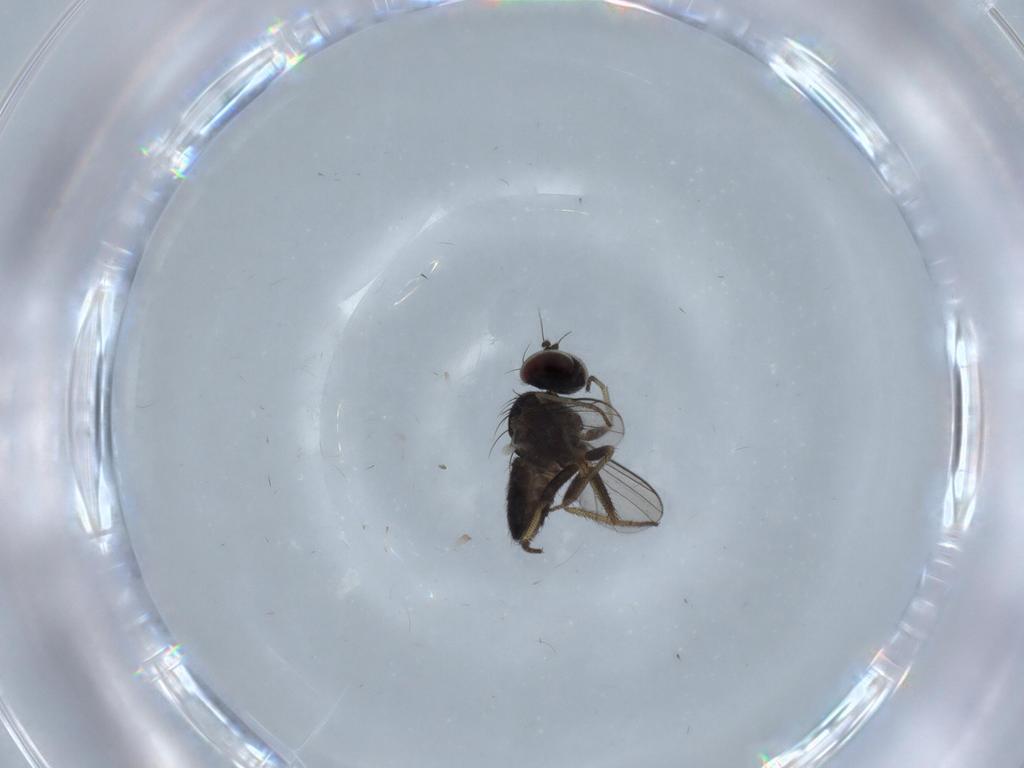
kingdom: Animalia
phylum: Arthropoda
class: Insecta
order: Diptera
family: Chironomidae
